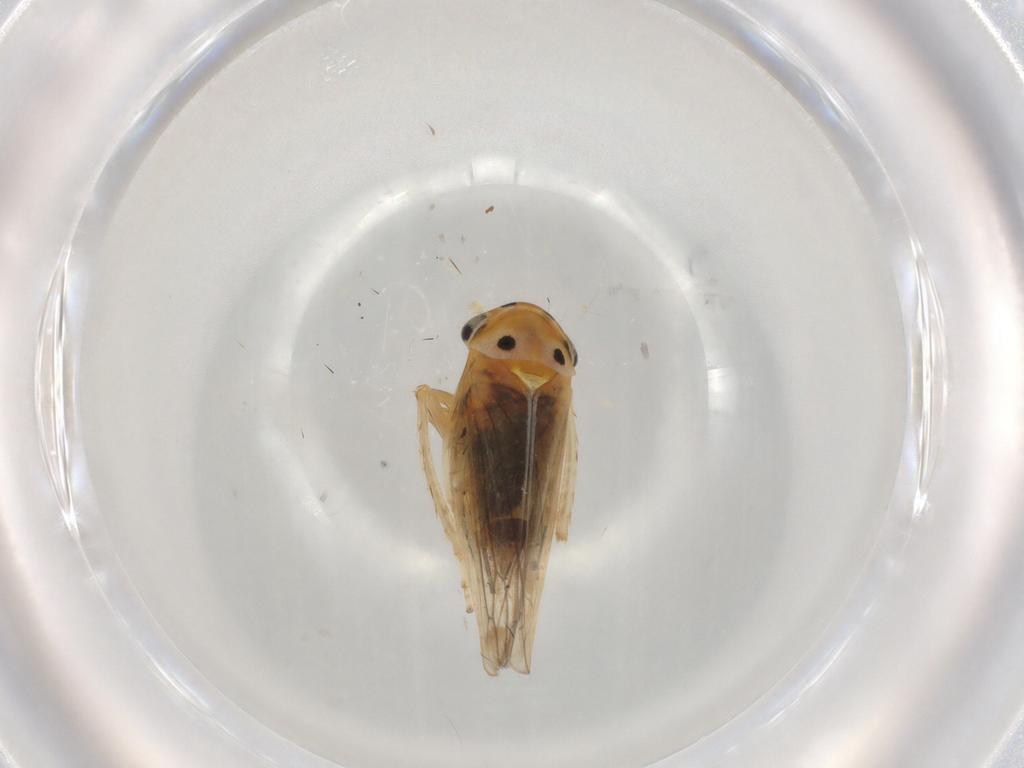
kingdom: Animalia
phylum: Arthropoda
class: Insecta
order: Hemiptera
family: Cicadellidae
